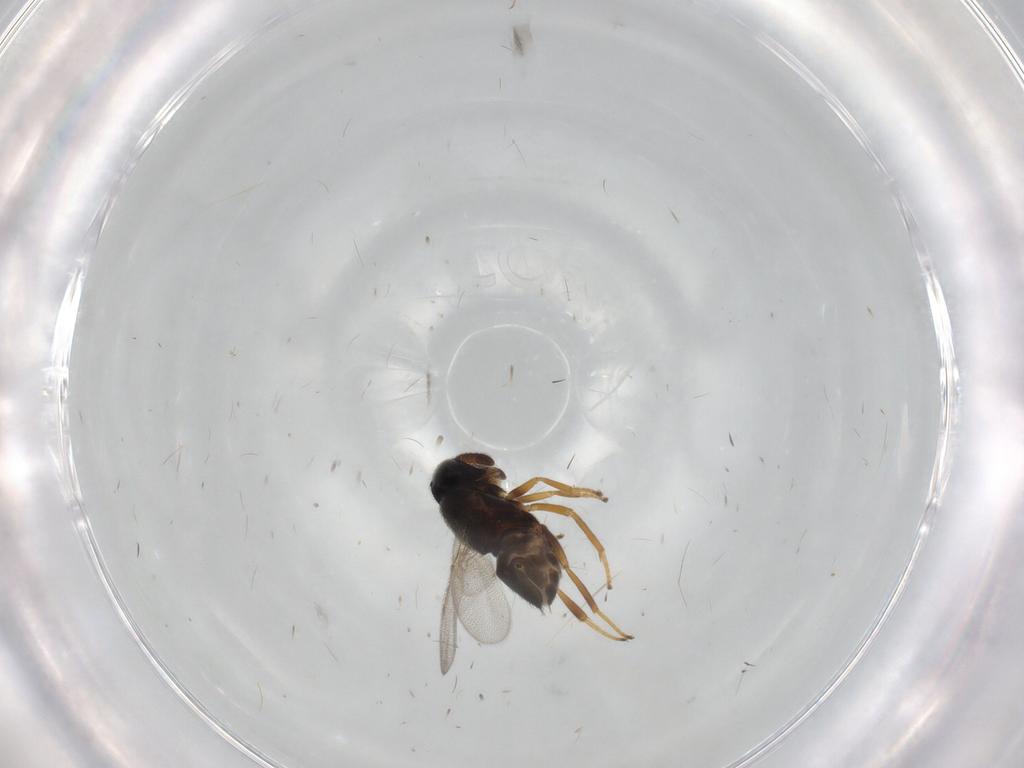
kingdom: Animalia
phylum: Arthropoda
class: Insecta
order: Hymenoptera
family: Encyrtidae
